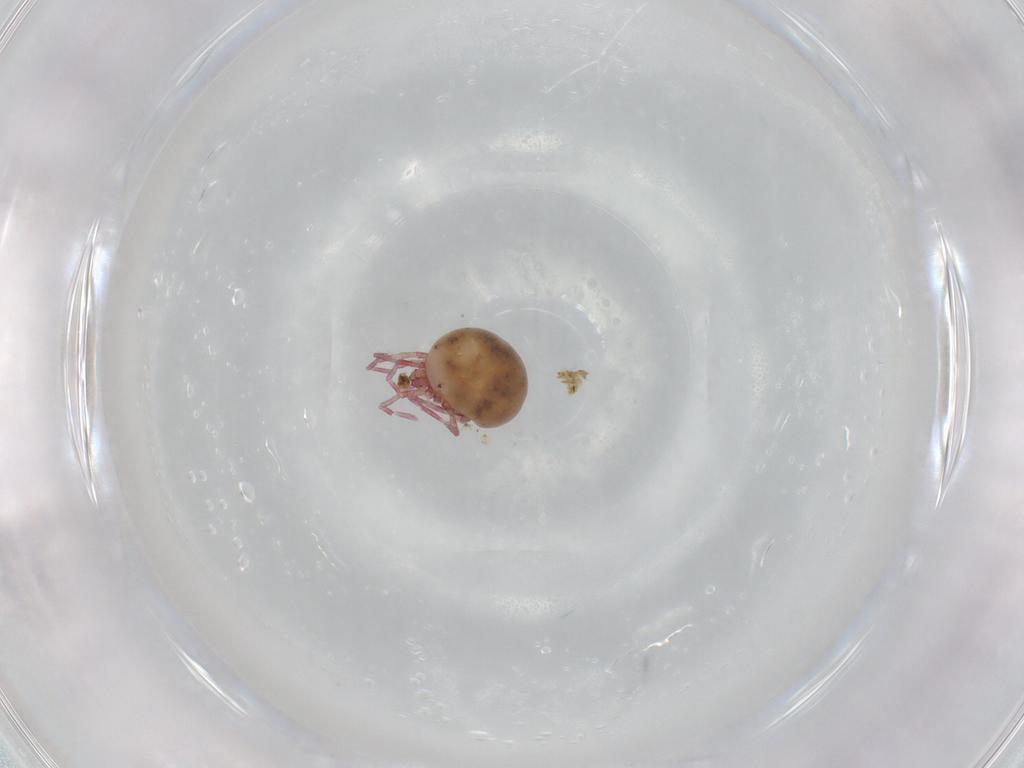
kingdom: Animalia
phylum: Arthropoda
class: Arachnida
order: Trombidiformes
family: Pionidae
